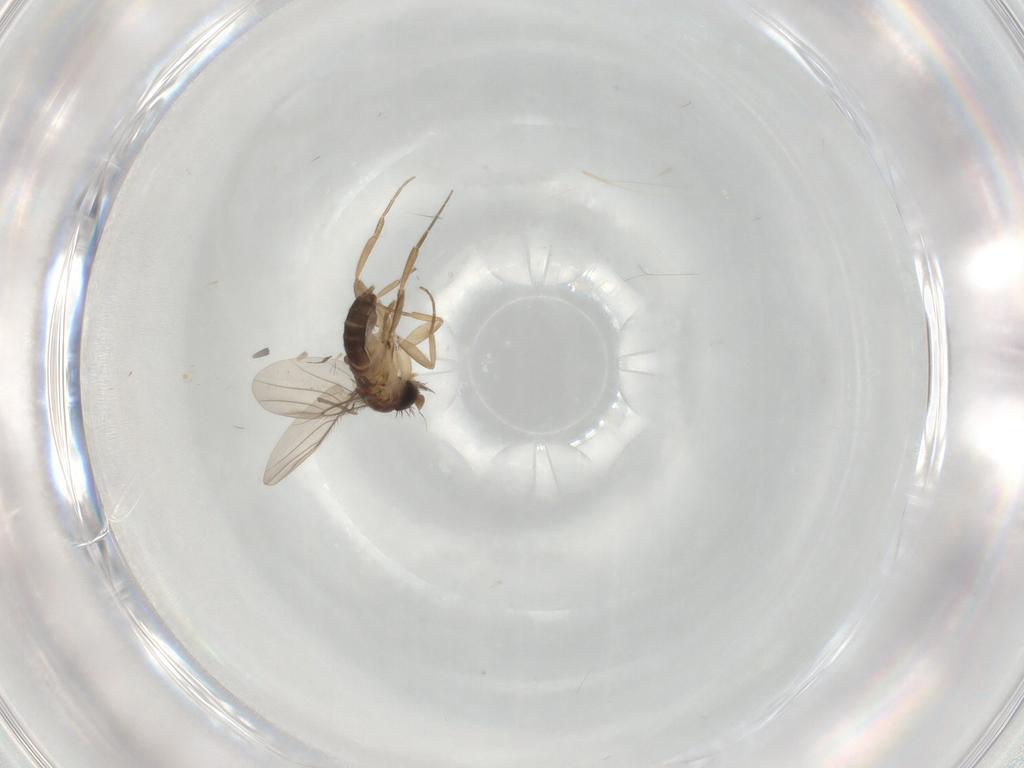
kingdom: Animalia
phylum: Arthropoda
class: Insecta
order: Diptera
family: Phoridae
